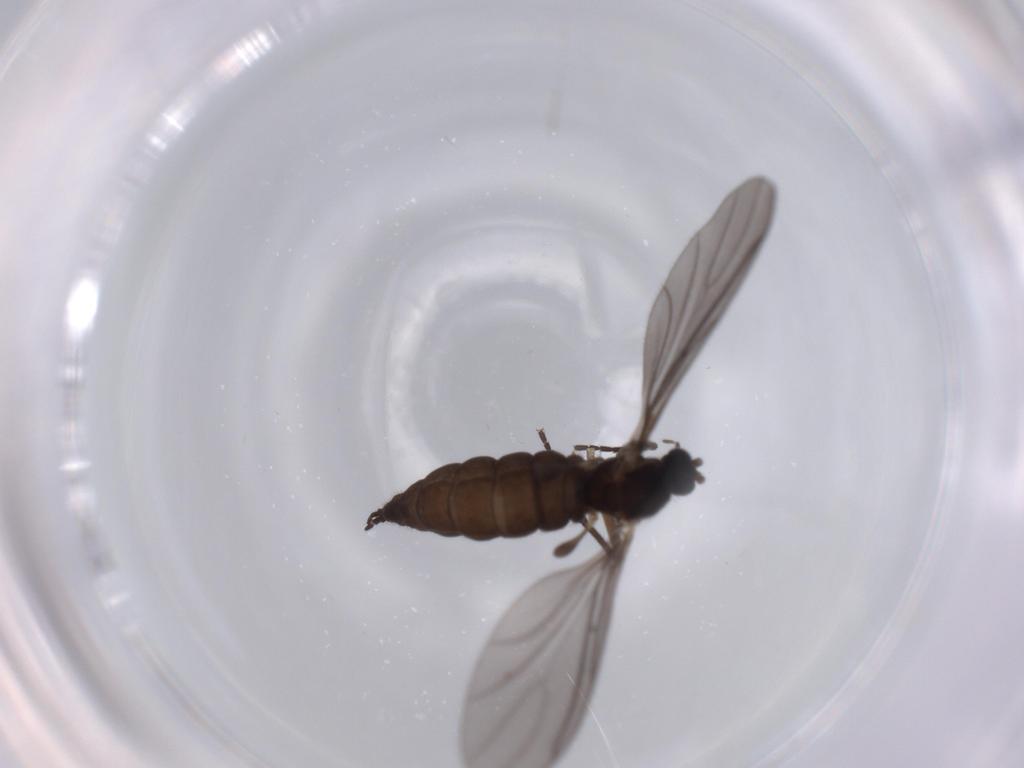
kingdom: Animalia
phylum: Arthropoda
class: Insecta
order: Diptera
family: Sciaridae
